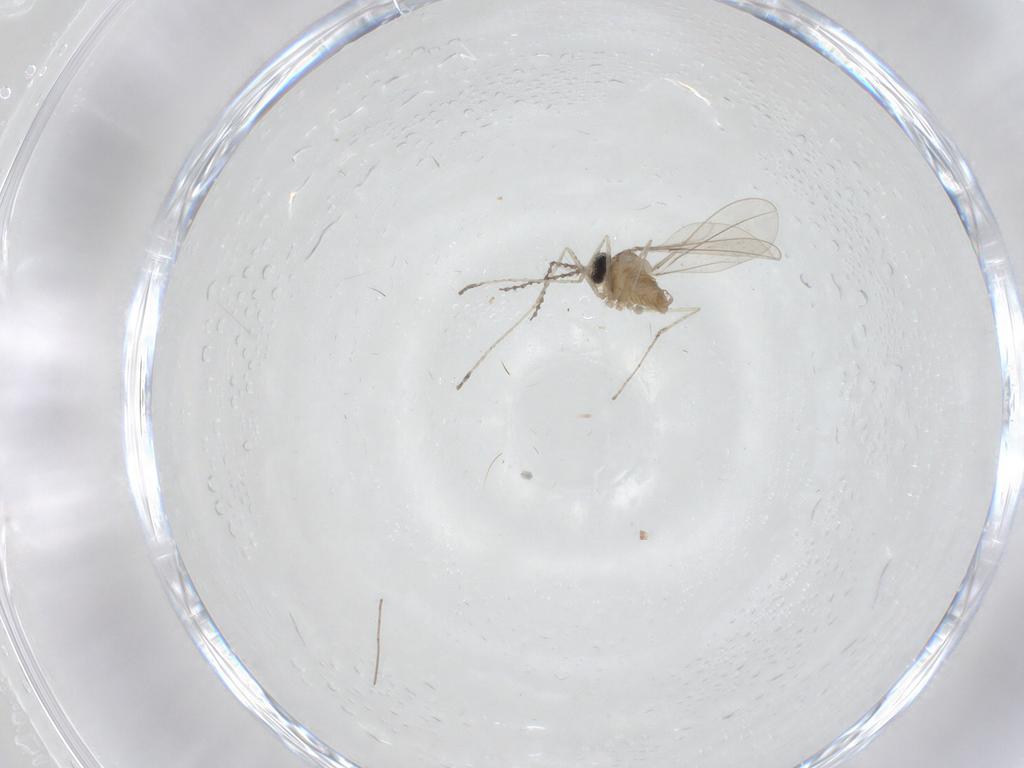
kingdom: Animalia
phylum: Arthropoda
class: Insecta
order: Diptera
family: Cecidomyiidae
